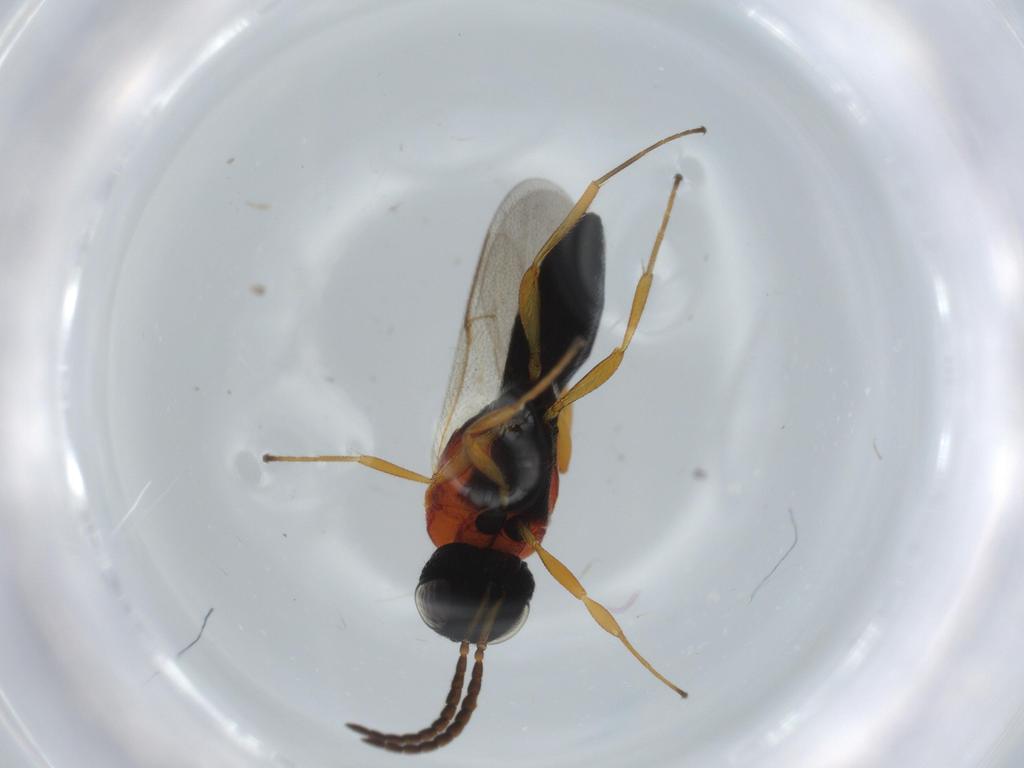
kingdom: Animalia
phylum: Arthropoda
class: Insecta
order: Hymenoptera
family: Scelionidae
